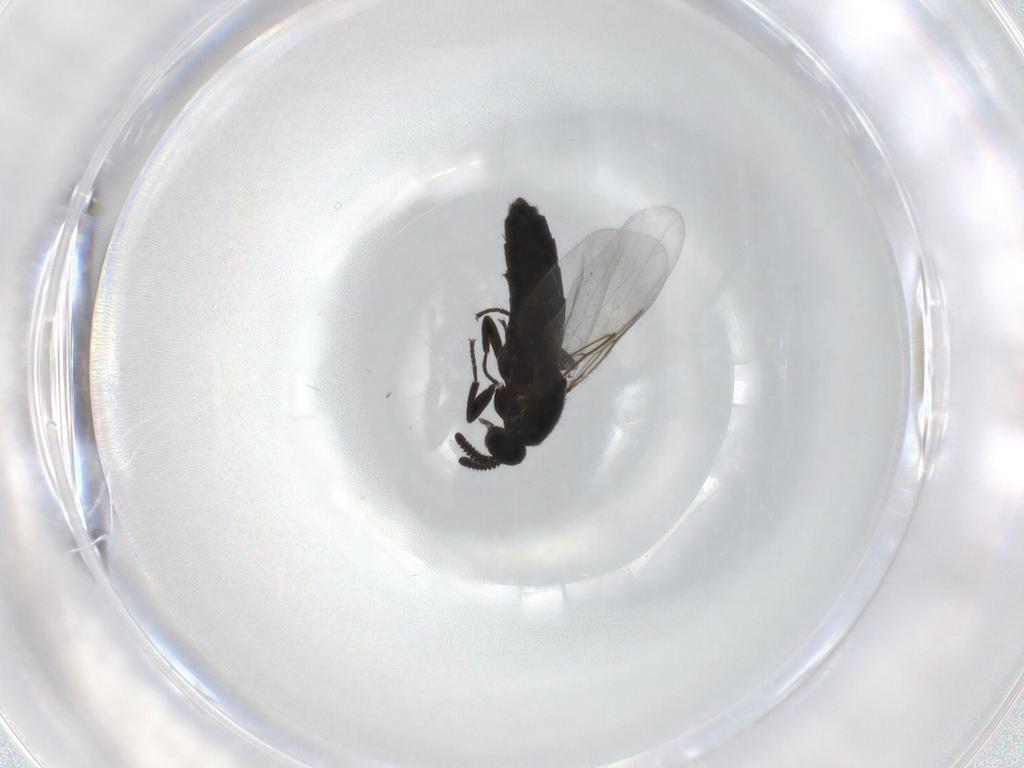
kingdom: Animalia
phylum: Arthropoda
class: Insecta
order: Diptera
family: Scatopsidae
